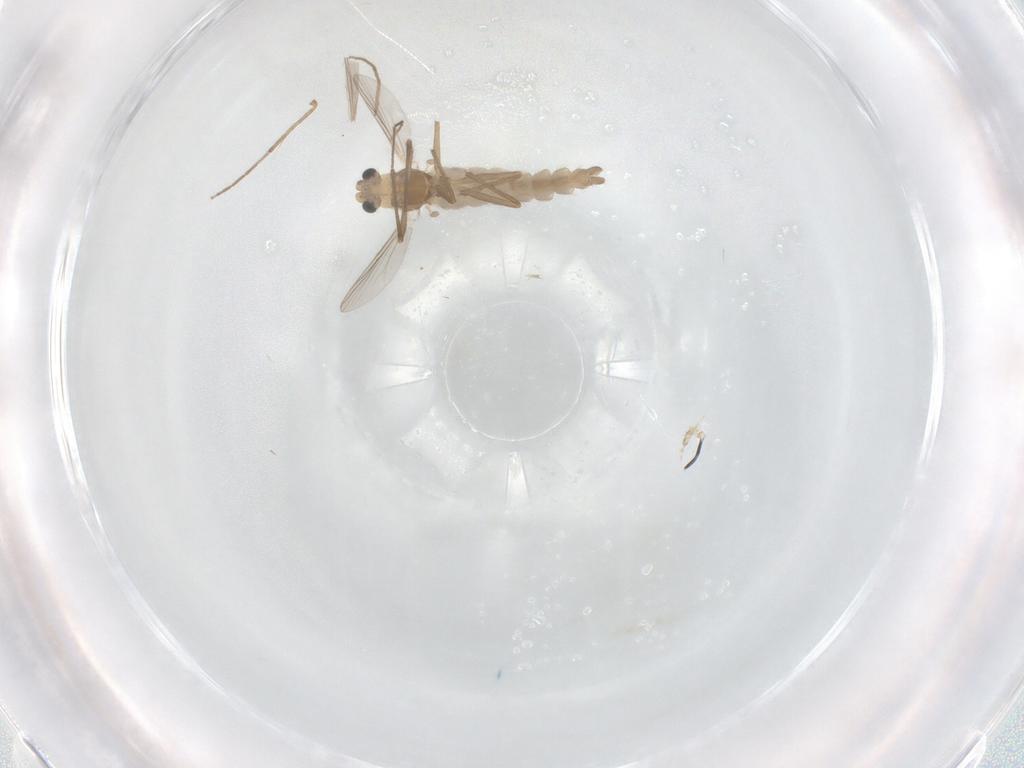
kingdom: Animalia
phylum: Arthropoda
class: Insecta
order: Diptera
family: Chironomidae
